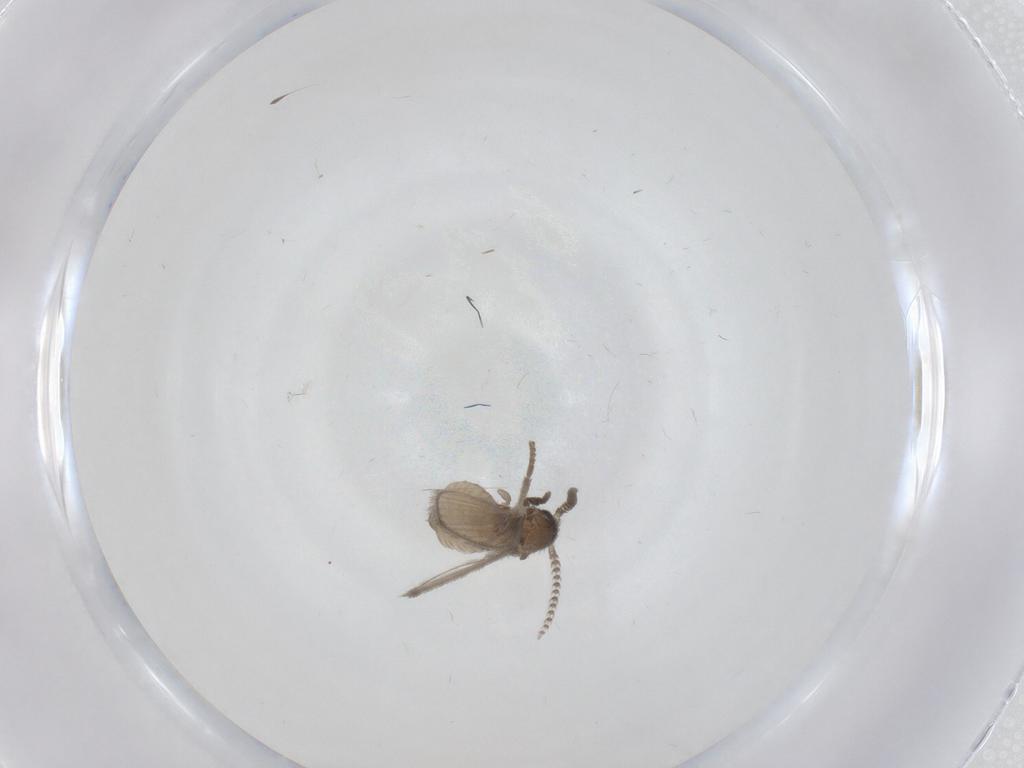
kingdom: Animalia
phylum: Arthropoda
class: Insecta
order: Diptera
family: Psychodidae
